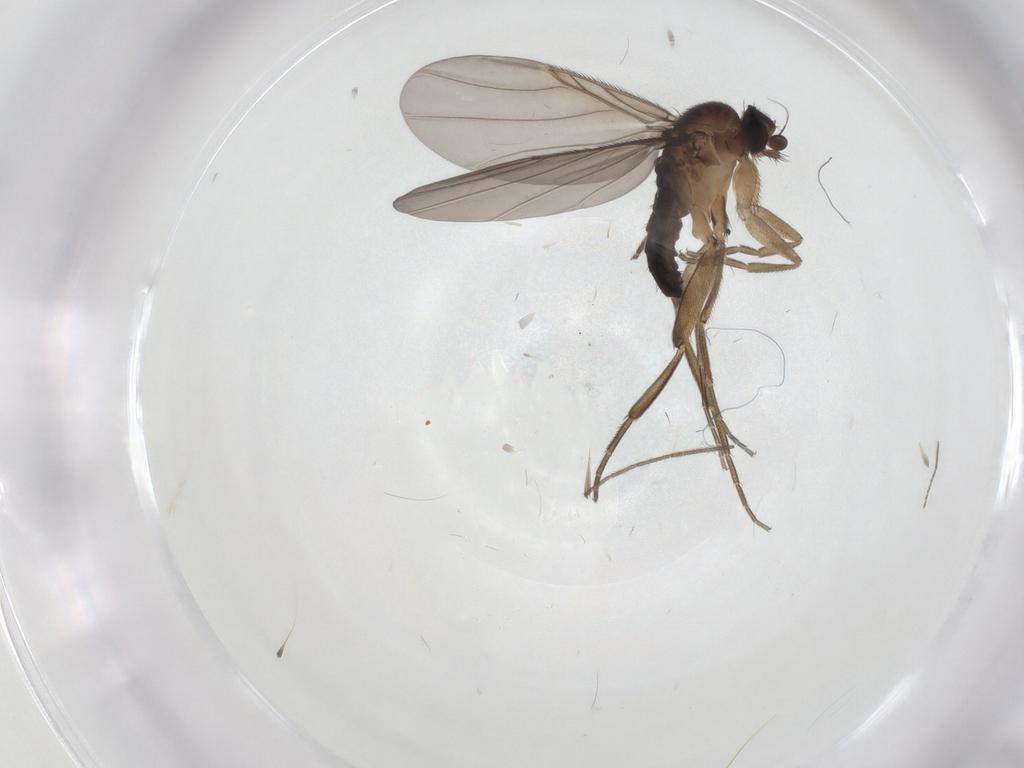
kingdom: Animalia
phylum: Arthropoda
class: Insecta
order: Diptera
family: Phoridae
